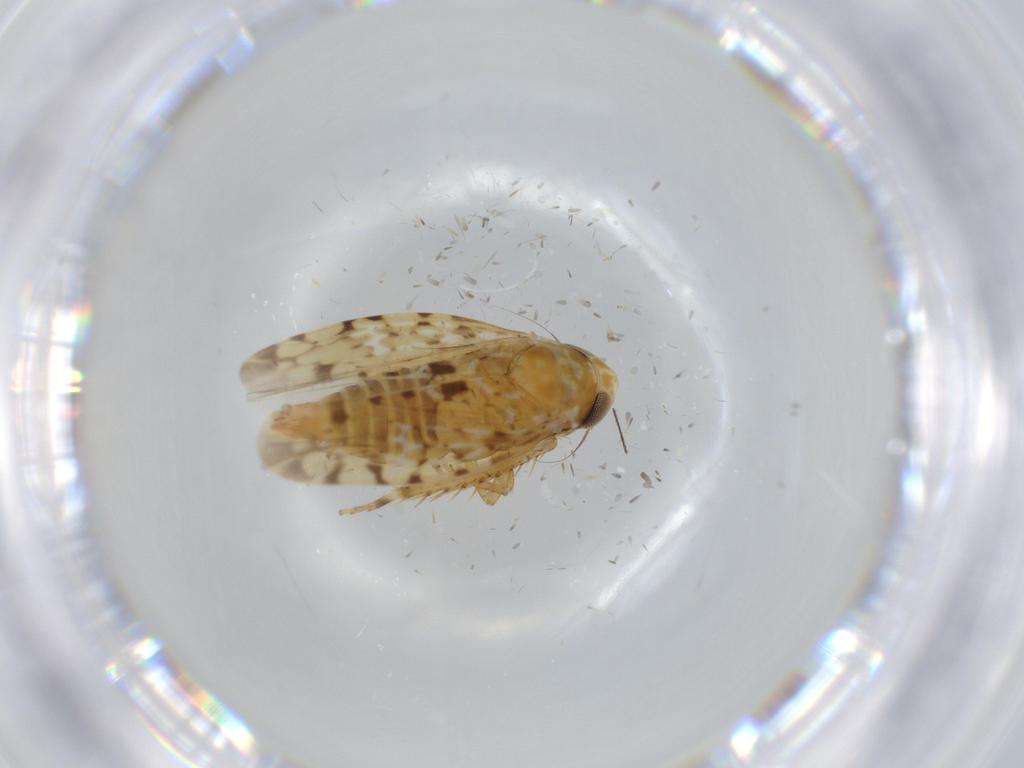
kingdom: Animalia
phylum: Arthropoda
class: Insecta
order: Hemiptera
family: Cicadellidae
